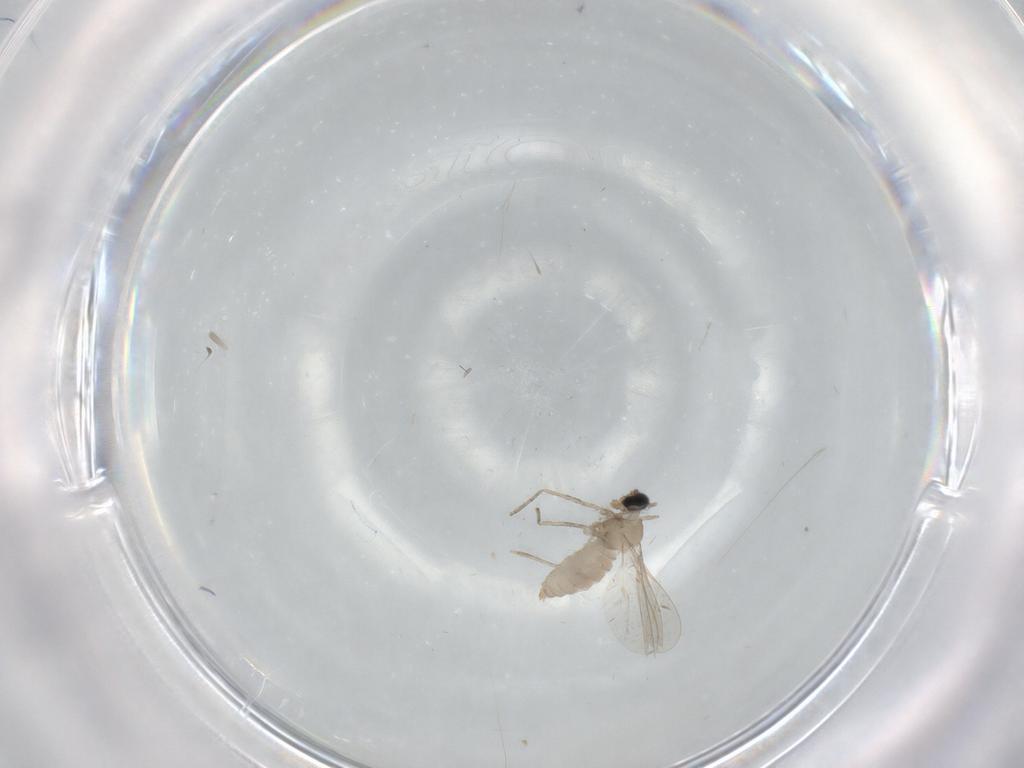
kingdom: Animalia
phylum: Arthropoda
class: Insecta
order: Diptera
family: Cecidomyiidae
